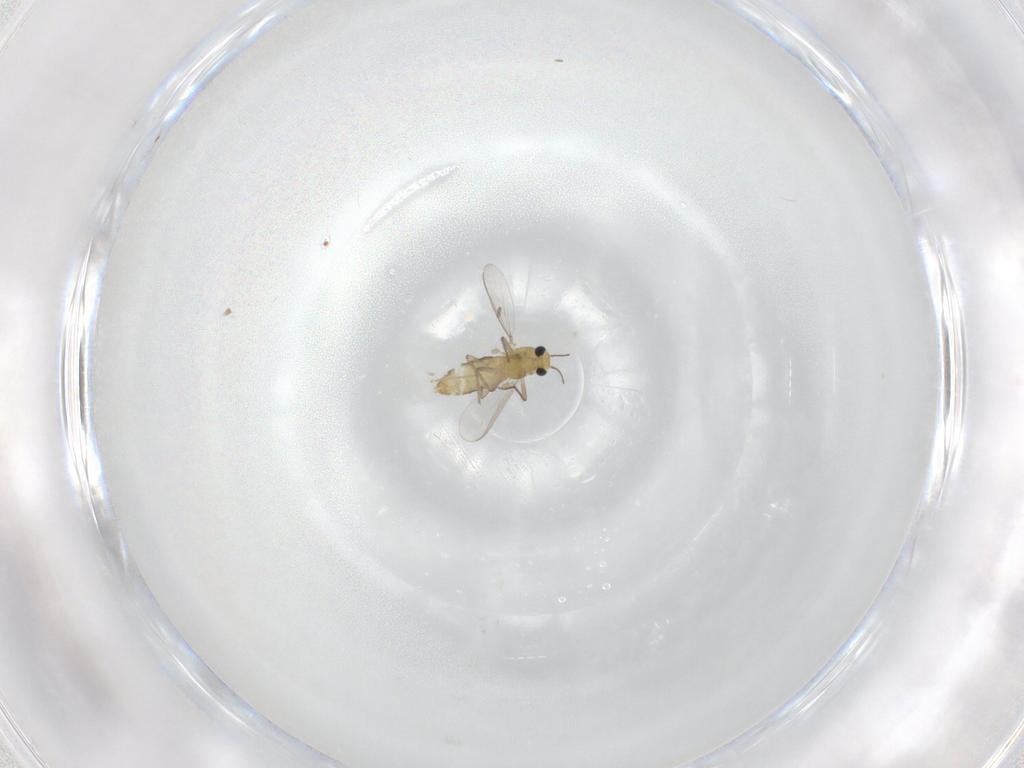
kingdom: Animalia
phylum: Arthropoda
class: Insecta
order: Diptera
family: Chironomidae
